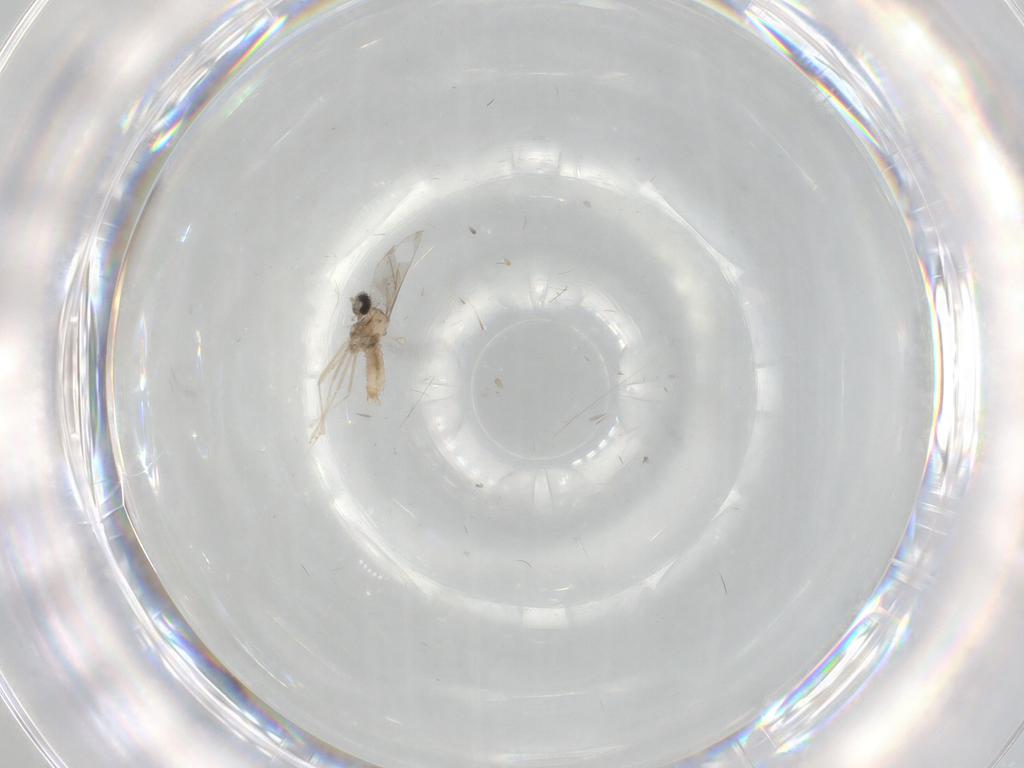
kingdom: Animalia
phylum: Arthropoda
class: Insecta
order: Diptera
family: Cecidomyiidae
